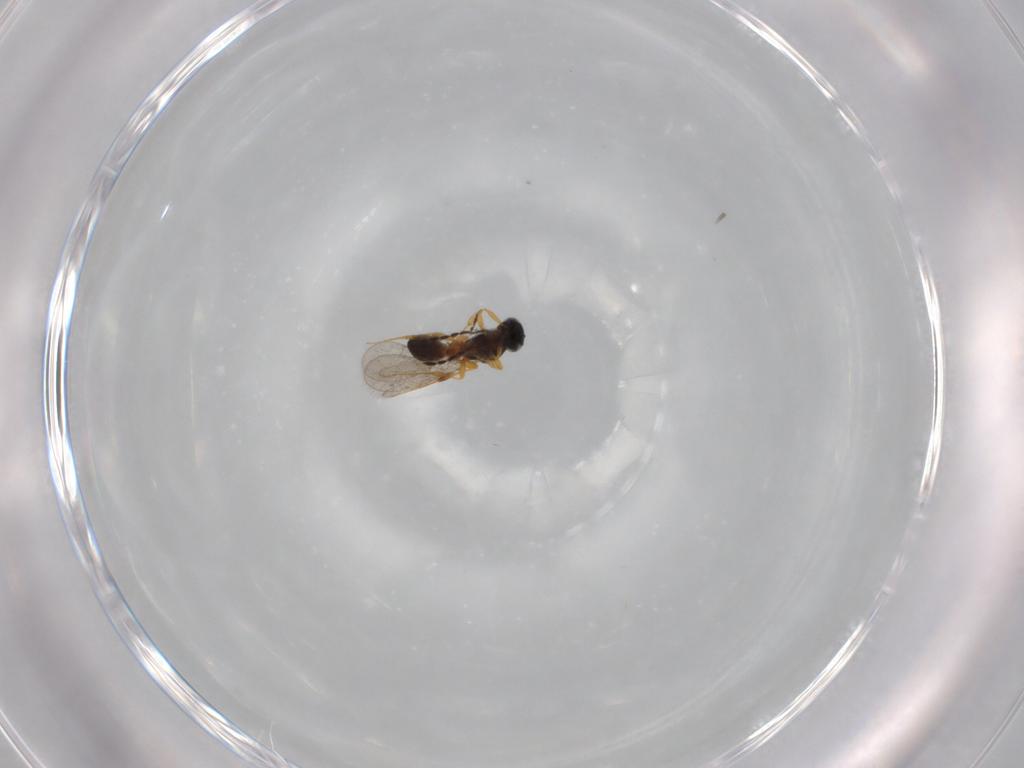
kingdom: Animalia
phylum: Arthropoda
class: Insecta
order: Hymenoptera
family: Platygastridae
